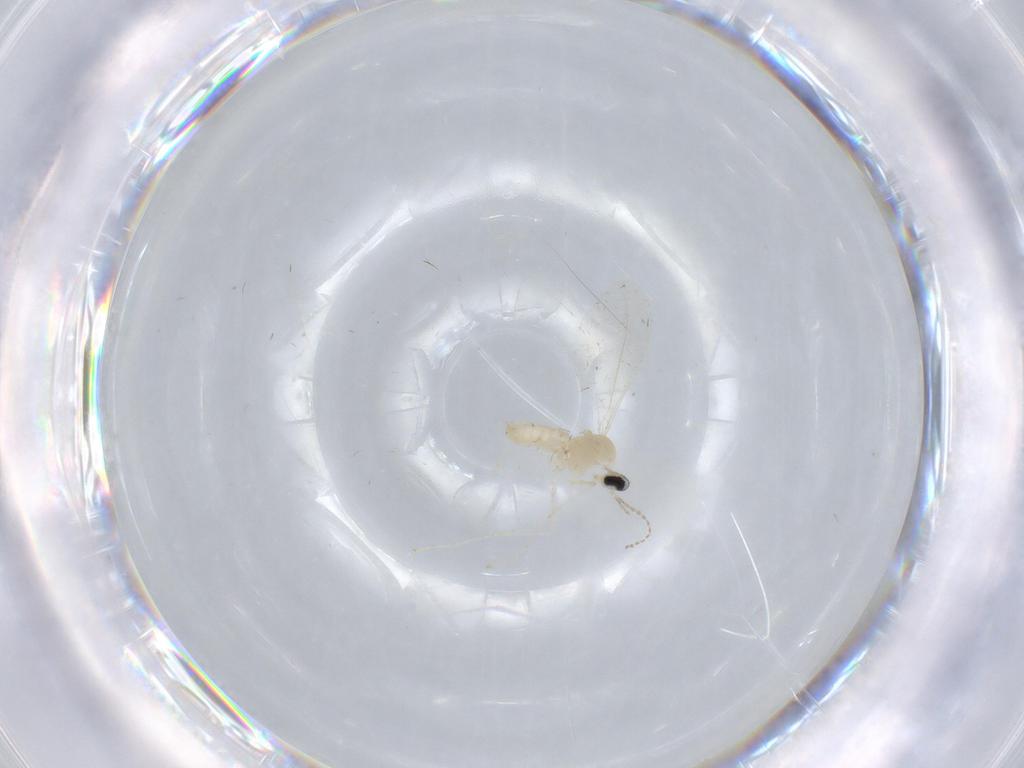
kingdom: Animalia
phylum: Arthropoda
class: Insecta
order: Diptera
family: Cecidomyiidae
